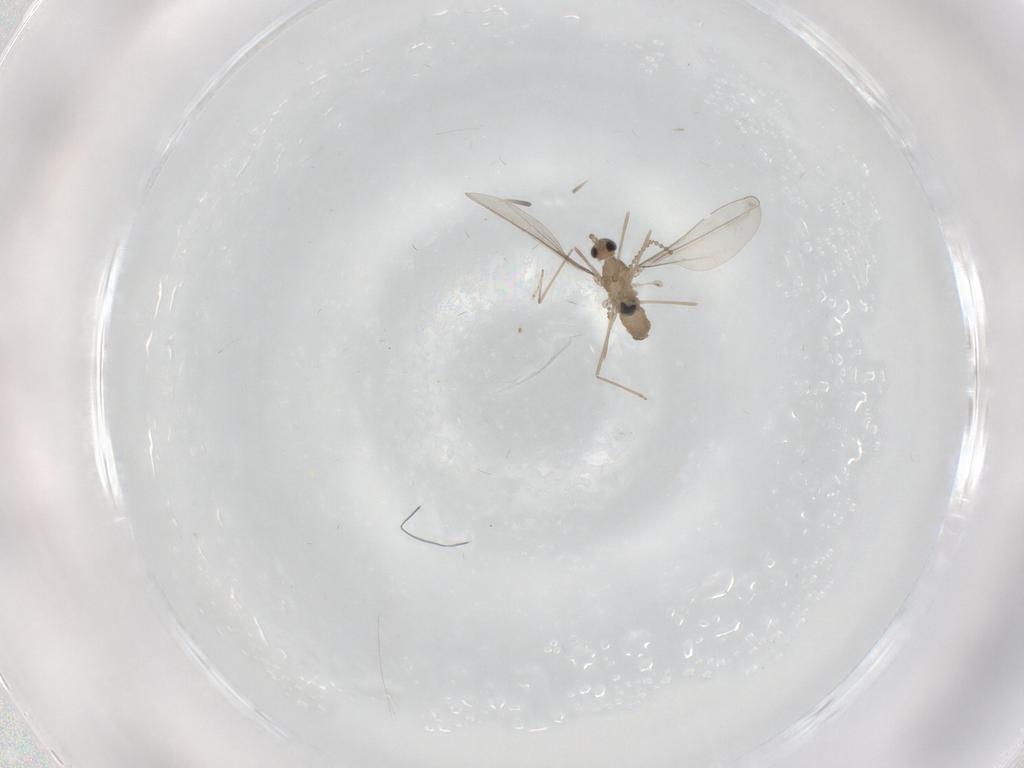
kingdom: Animalia
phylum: Arthropoda
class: Insecta
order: Diptera
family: Cecidomyiidae
